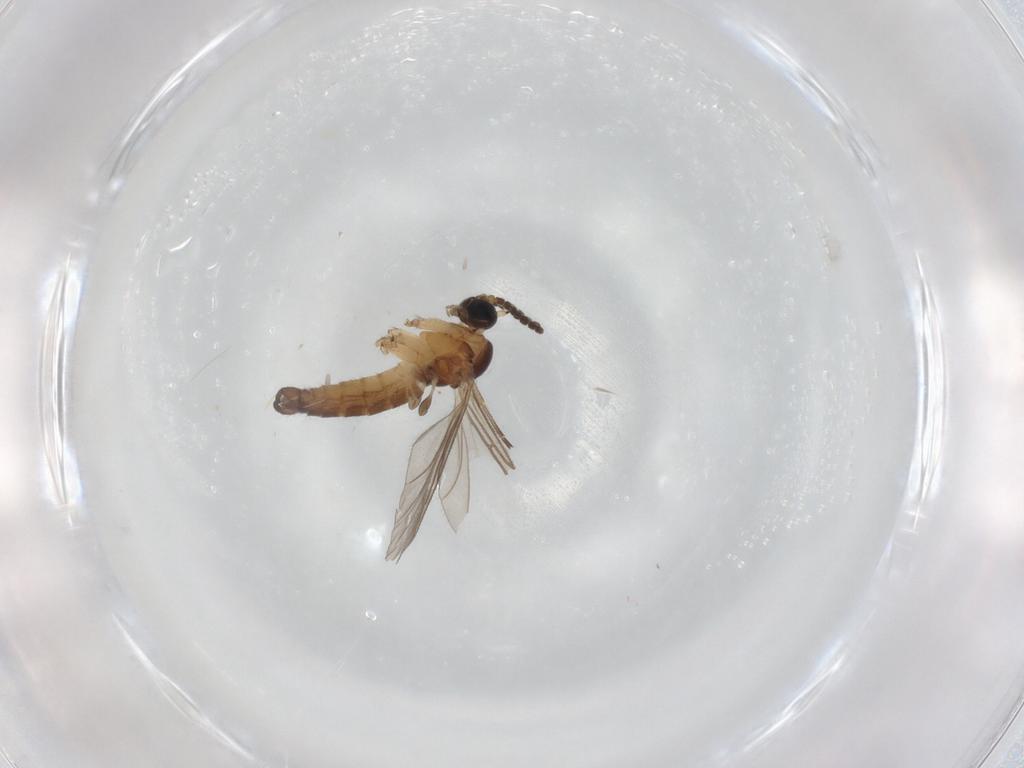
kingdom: Animalia
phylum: Arthropoda
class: Insecta
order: Diptera
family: Sciaridae
